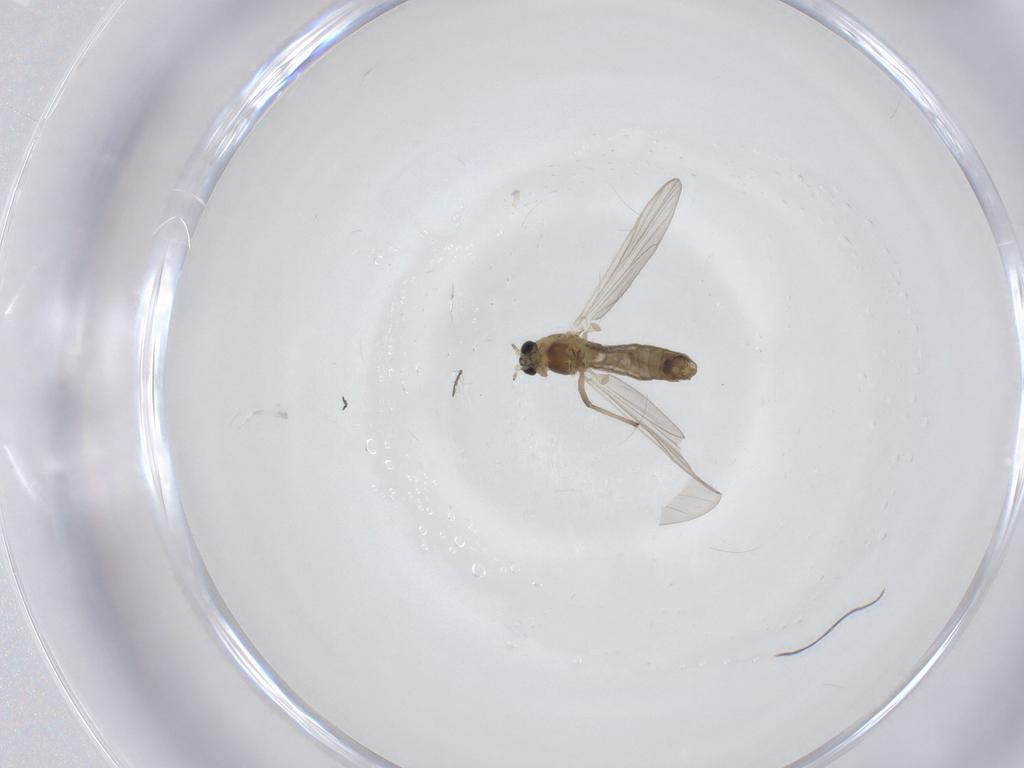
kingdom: Animalia
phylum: Arthropoda
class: Insecta
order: Diptera
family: Chironomidae
